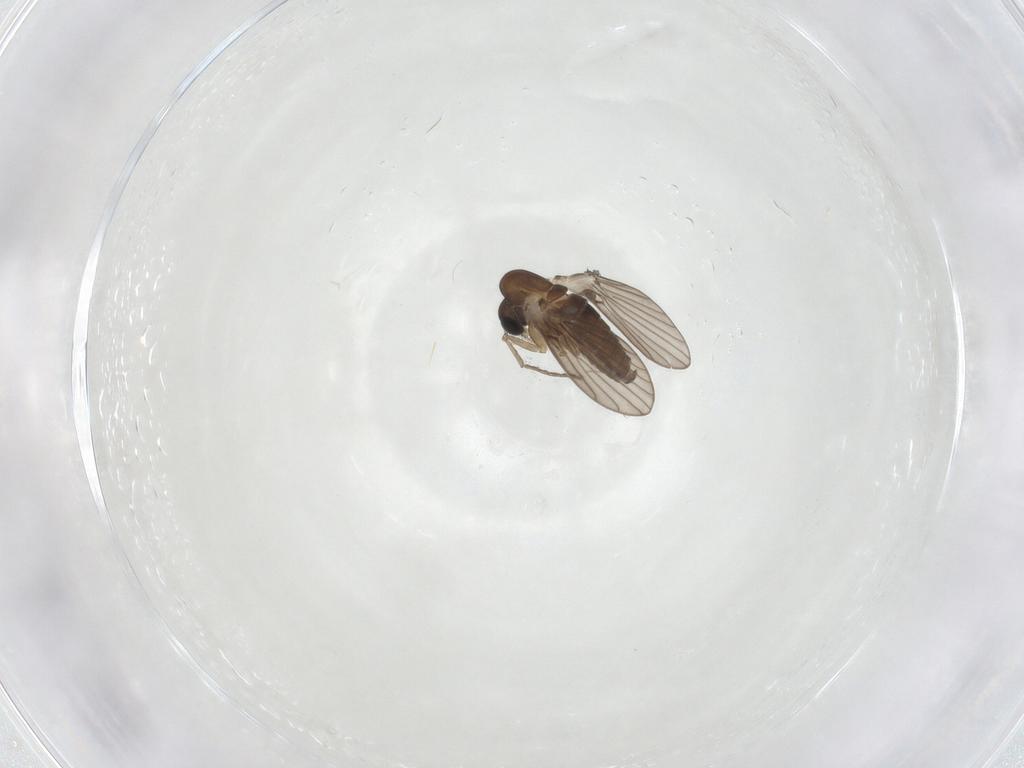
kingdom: Animalia
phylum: Arthropoda
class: Insecta
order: Diptera
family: Psychodidae
